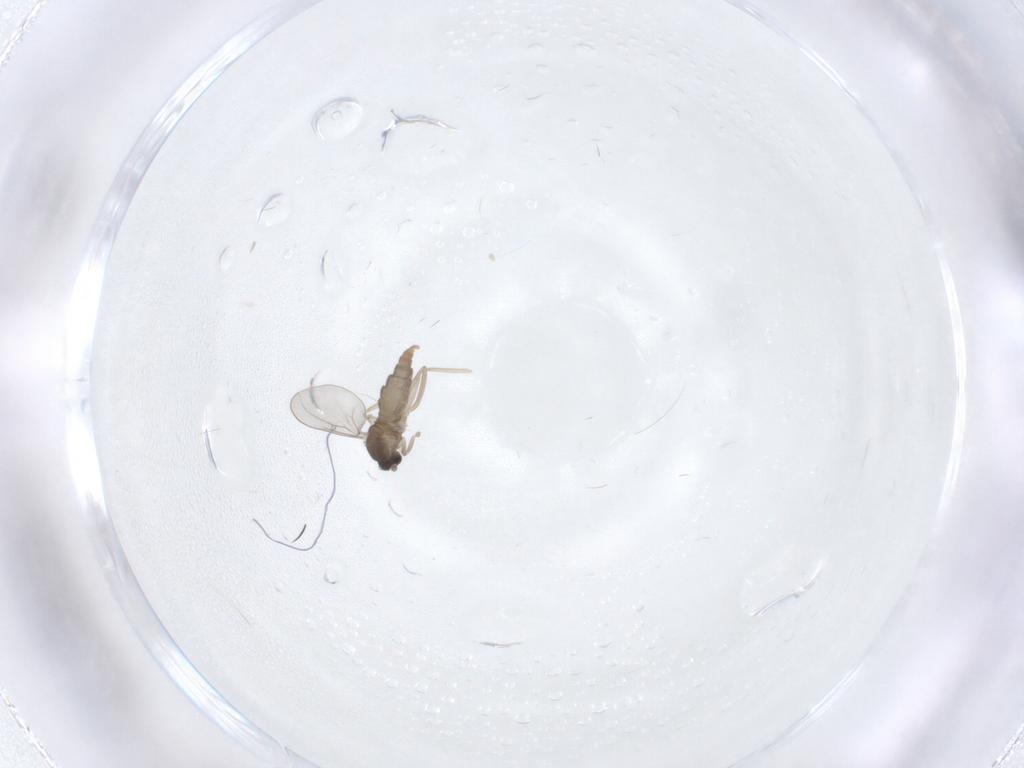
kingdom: Animalia
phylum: Arthropoda
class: Insecta
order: Diptera
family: Cecidomyiidae
